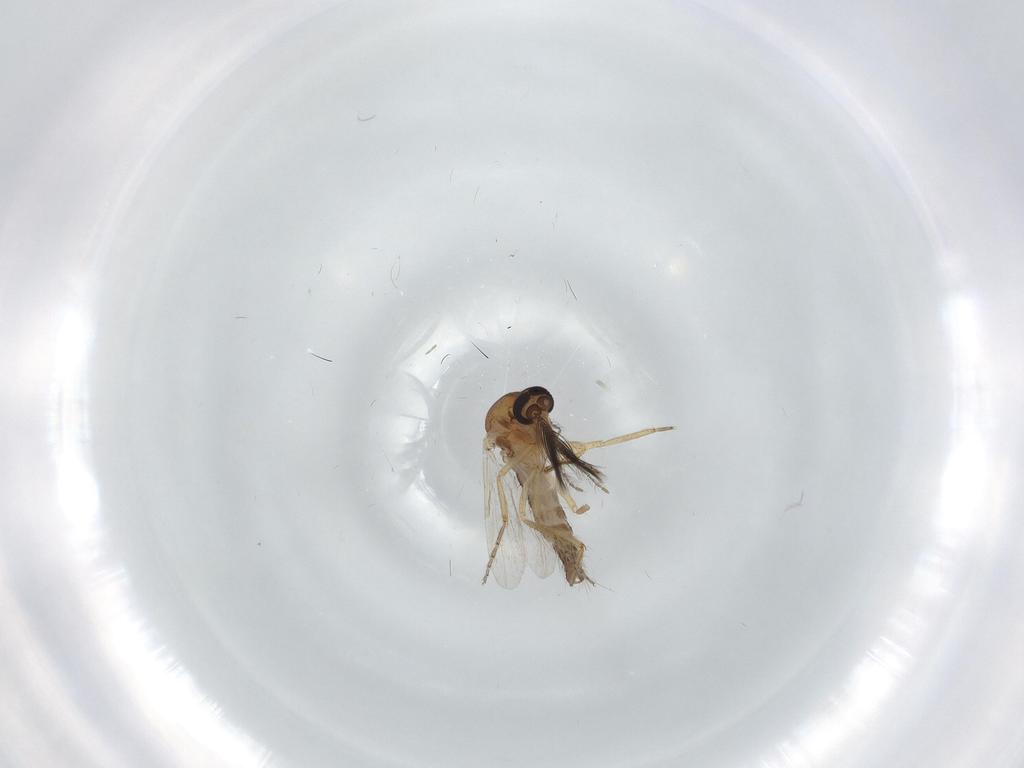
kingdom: Animalia
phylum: Arthropoda
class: Insecta
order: Diptera
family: Ceratopogonidae
